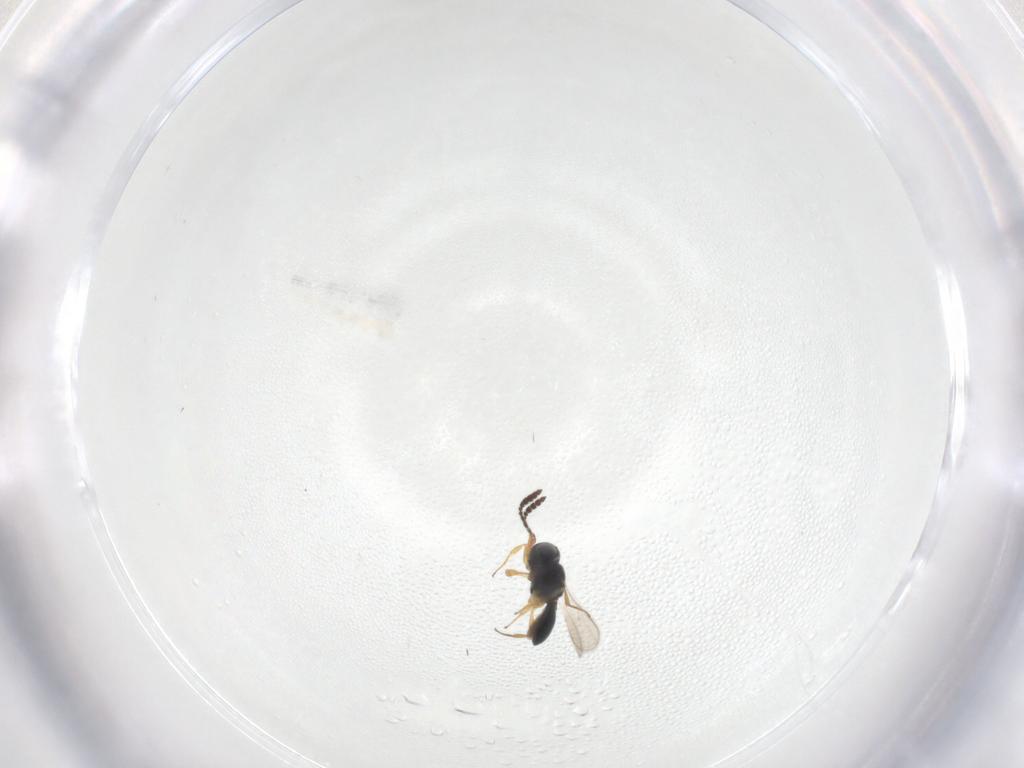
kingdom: Animalia
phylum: Arthropoda
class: Insecta
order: Hymenoptera
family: Scelionidae
